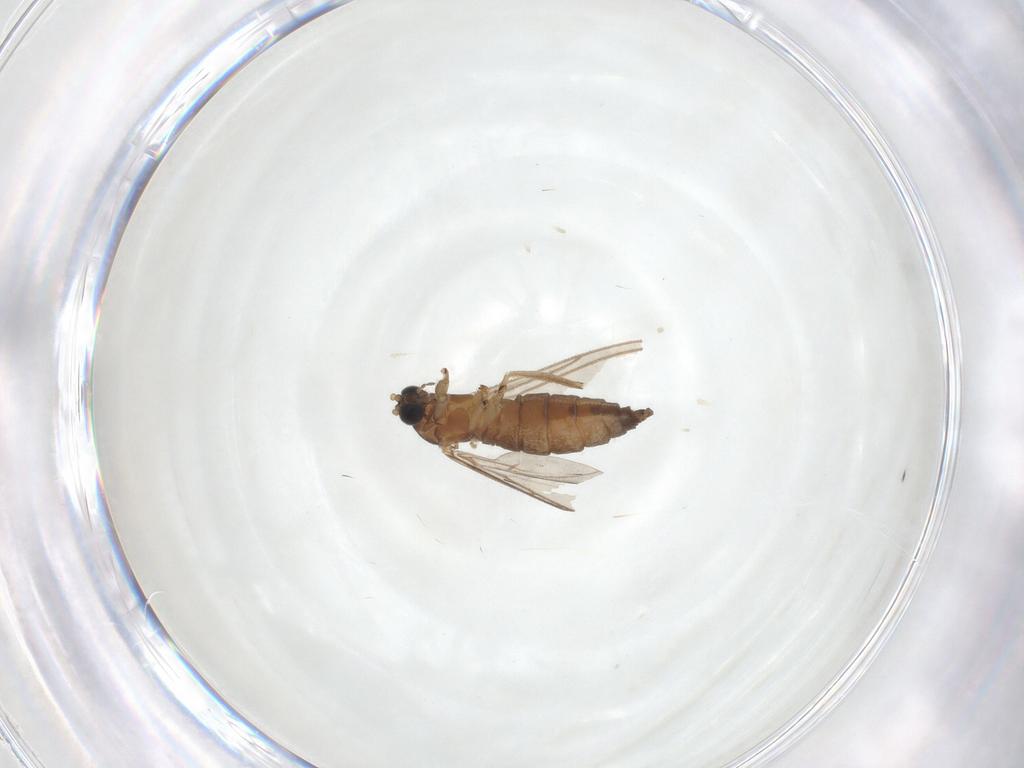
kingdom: Animalia
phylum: Arthropoda
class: Insecta
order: Diptera
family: Sciaridae
